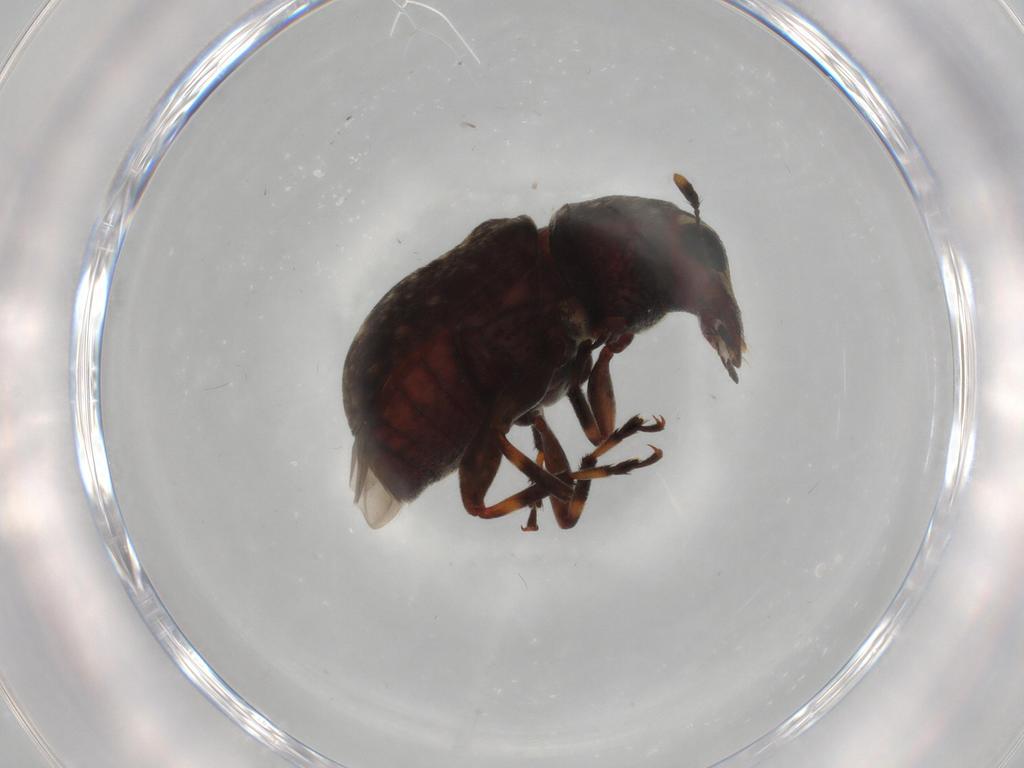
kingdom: Animalia
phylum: Arthropoda
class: Insecta
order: Coleoptera
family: Anthribidae
